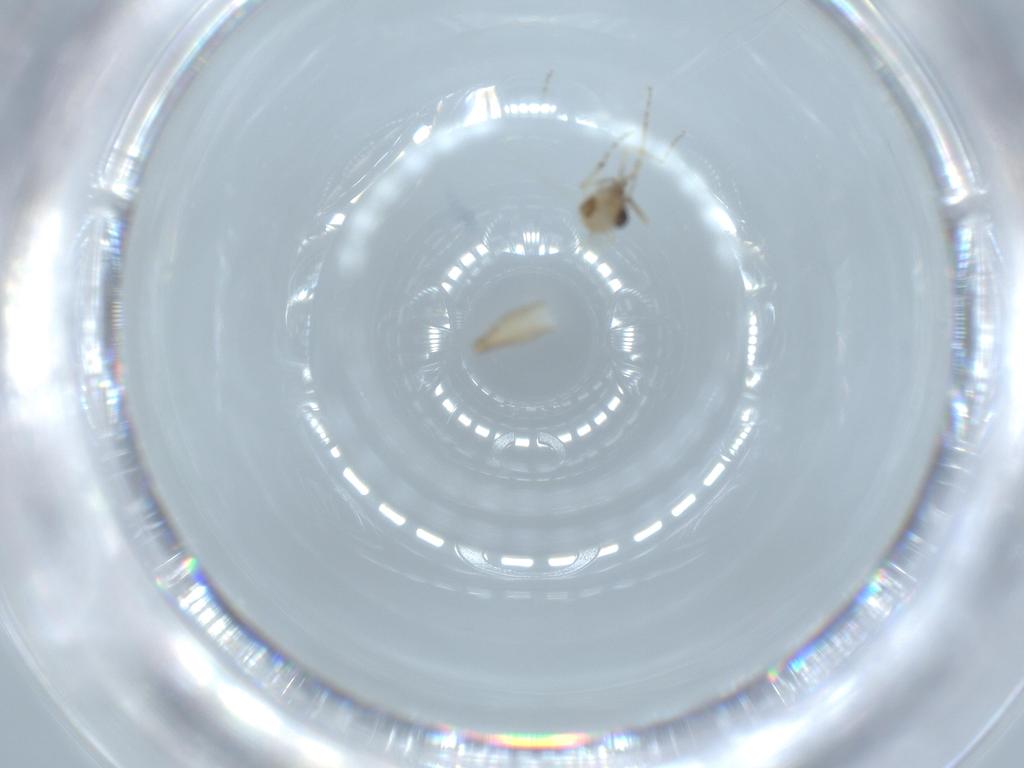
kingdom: Animalia
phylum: Arthropoda
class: Insecta
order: Diptera
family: Ceratopogonidae
